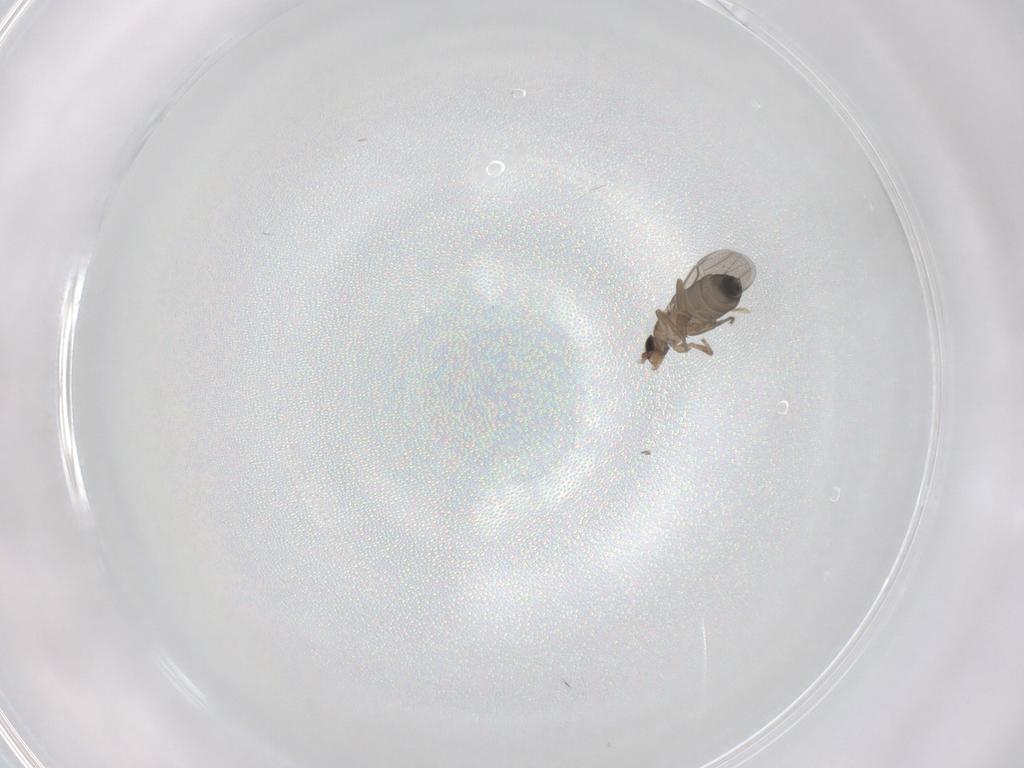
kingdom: Animalia
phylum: Arthropoda
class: Insecta
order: Diptera
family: Phoridae
